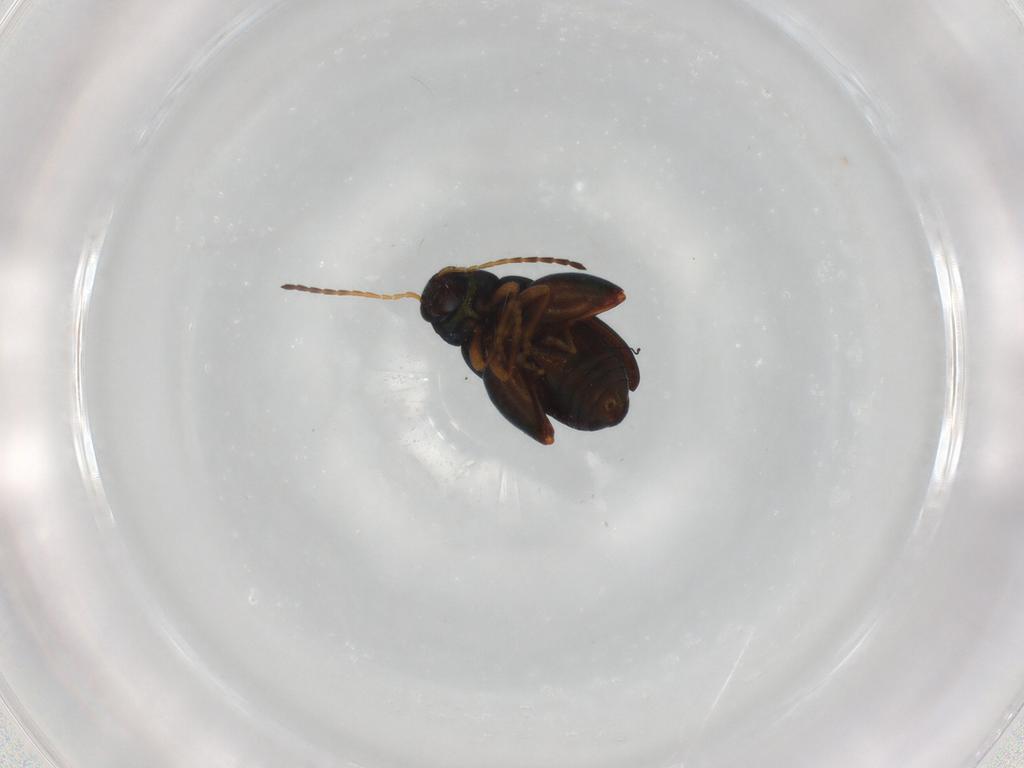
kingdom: Animalia
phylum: Arthropoda
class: Insecta
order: Coleoptera
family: Chrysomelidae
